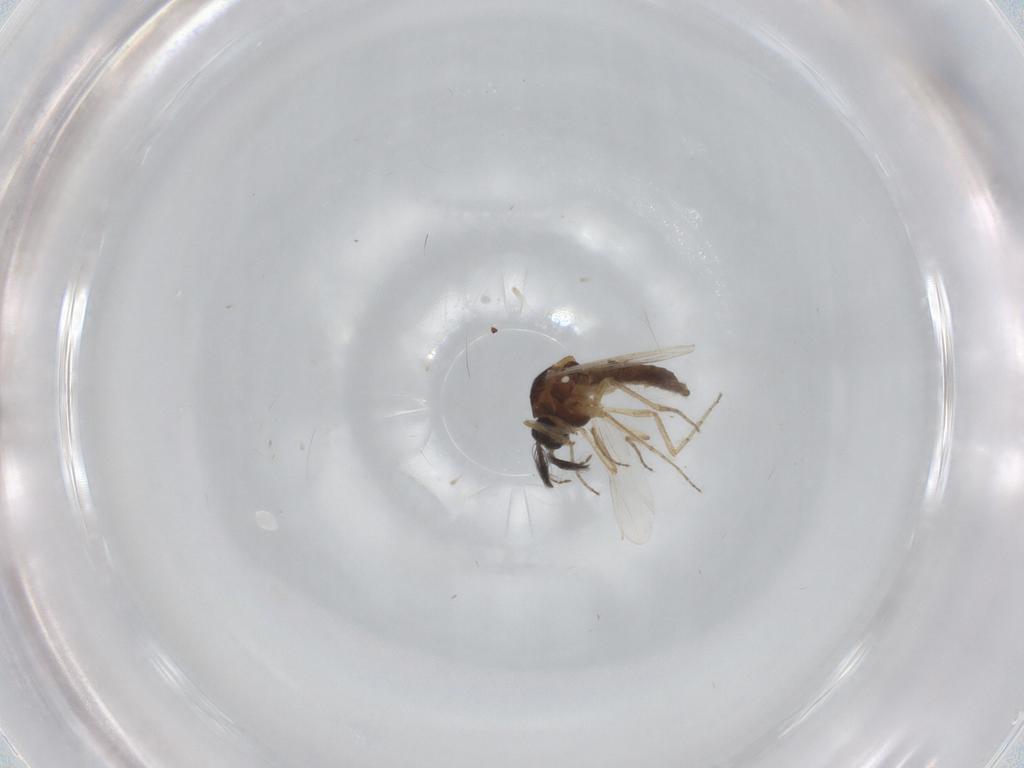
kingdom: Animalia
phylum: Arthropoda
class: Insecta
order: Diptera
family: Ceratopogonidae
